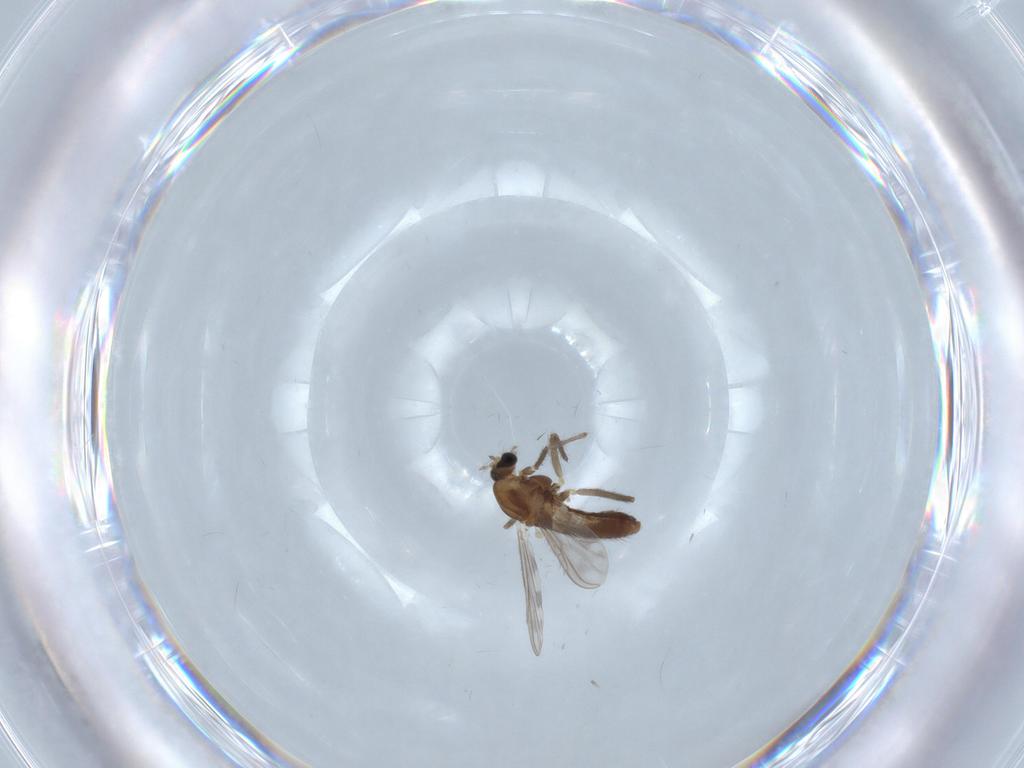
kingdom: Animalia
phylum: Arthropoda
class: Insecta
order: Diptera
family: Chironomidae
